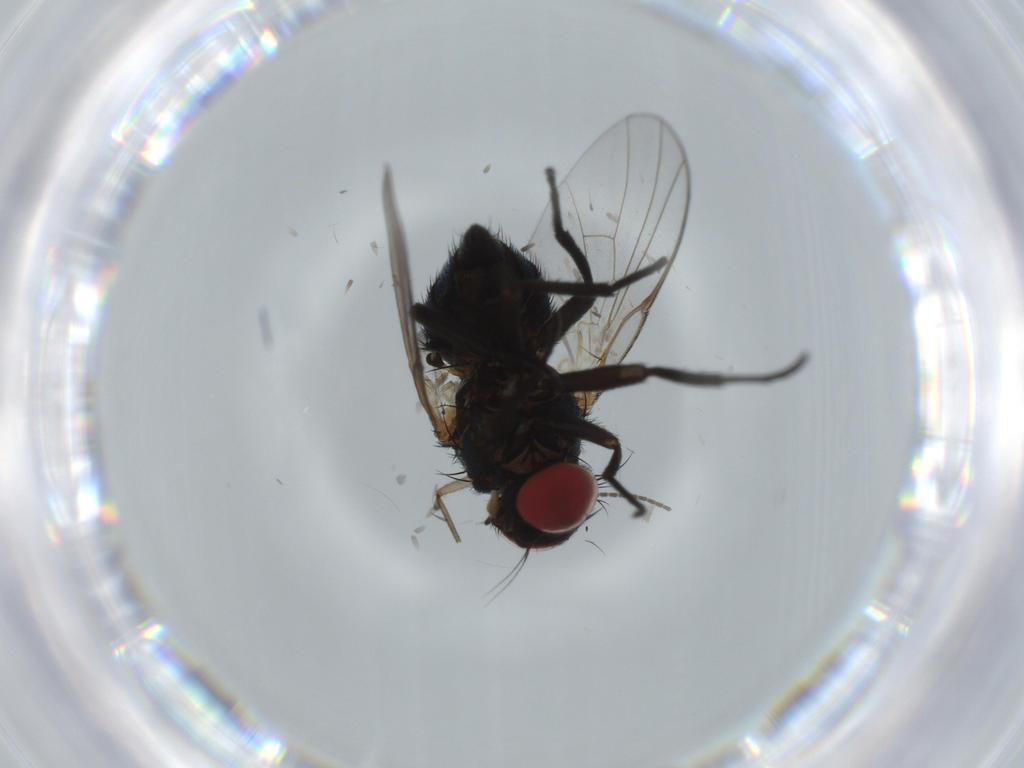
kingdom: Animalia
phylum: Arthropoda
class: Insecta
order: Diptera
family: Agromyzidae
